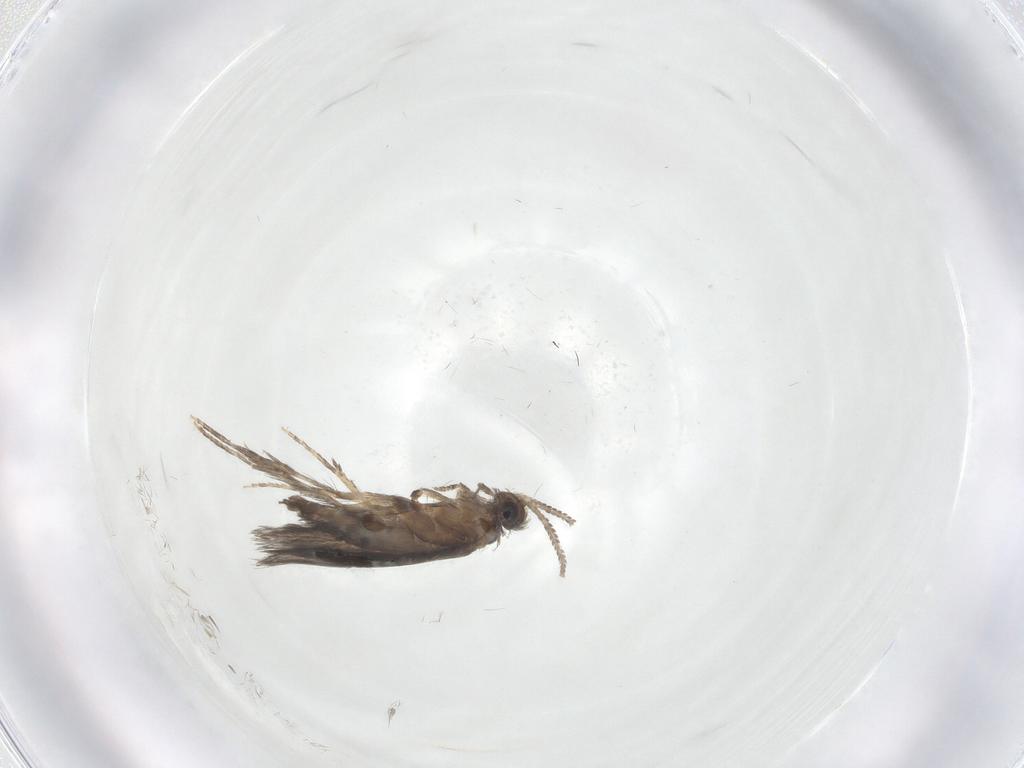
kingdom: Animalia
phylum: Arthropoda
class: Insecta
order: Trichoptera
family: Hydroptilidae
